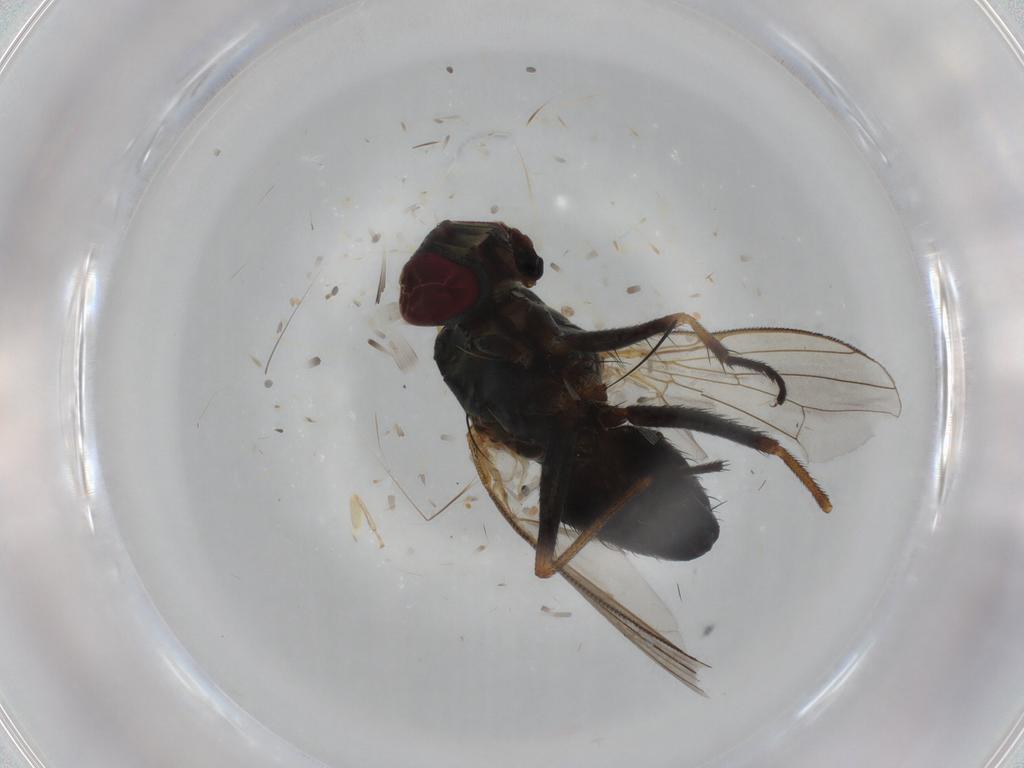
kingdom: Animalia
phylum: Arthropoda
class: Insecta
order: Diptera
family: Muscidae
